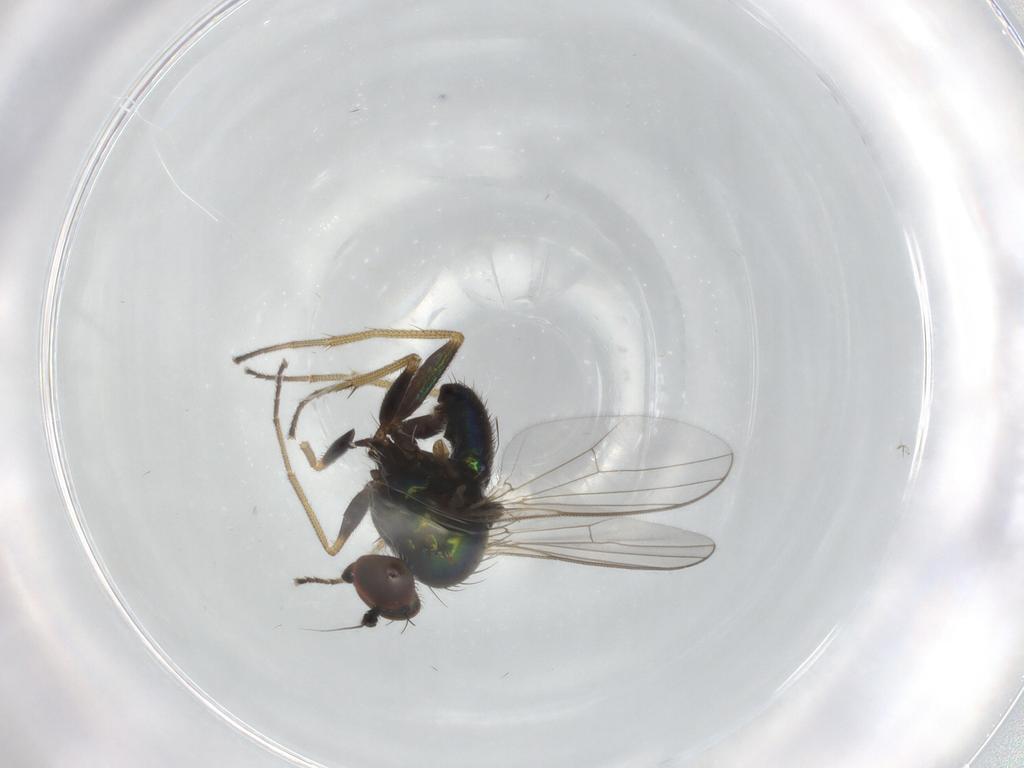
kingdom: Animalia
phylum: Arthropoda
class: Insecta
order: Diptera
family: Dolichopodidae
